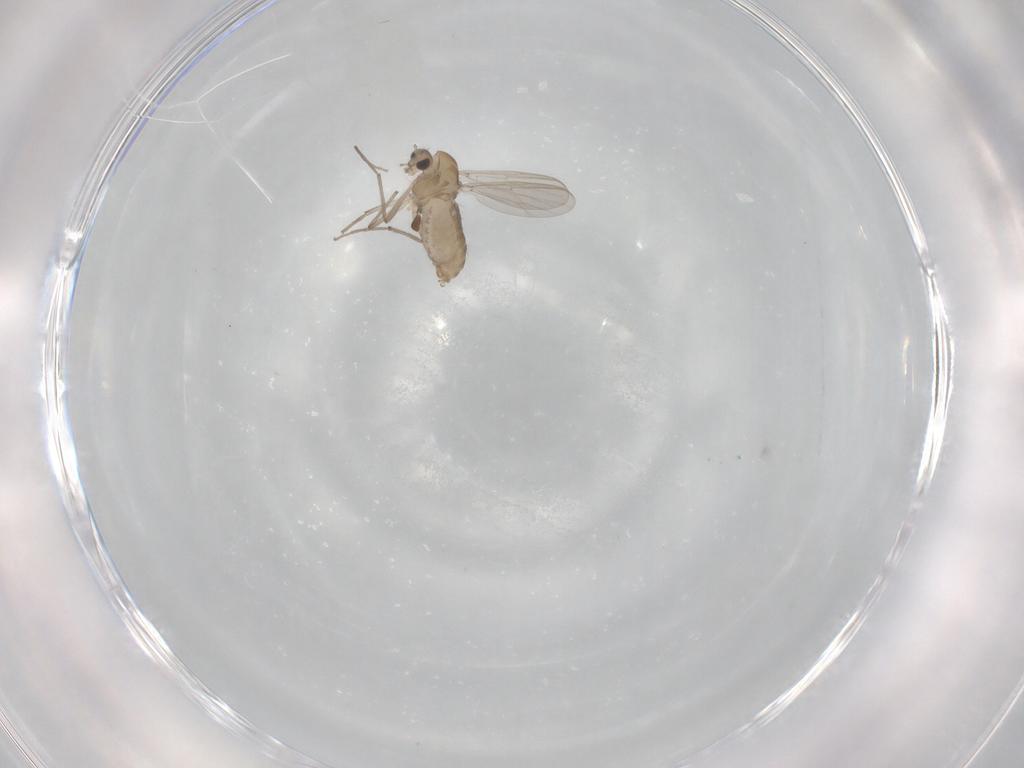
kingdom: Animalia
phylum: Arthropoda
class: Insecta
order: Diptera
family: Chironomidae
